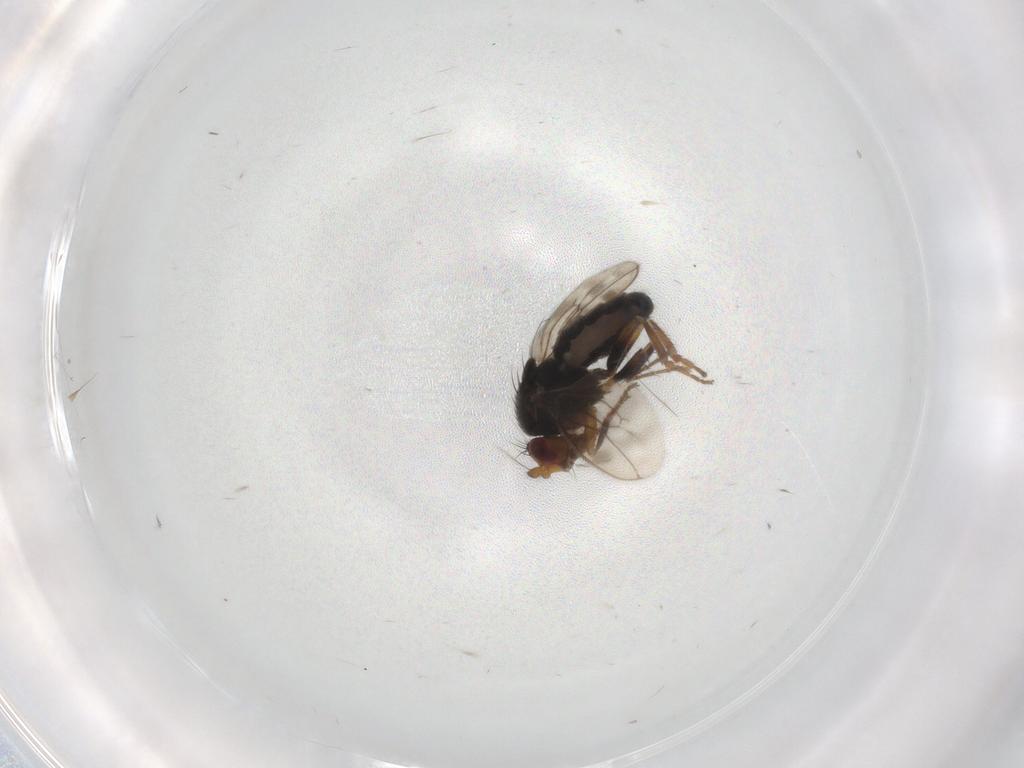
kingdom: Animalia
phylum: Arthropoda
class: Insecta
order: Diptera
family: Sphaeroceridae
